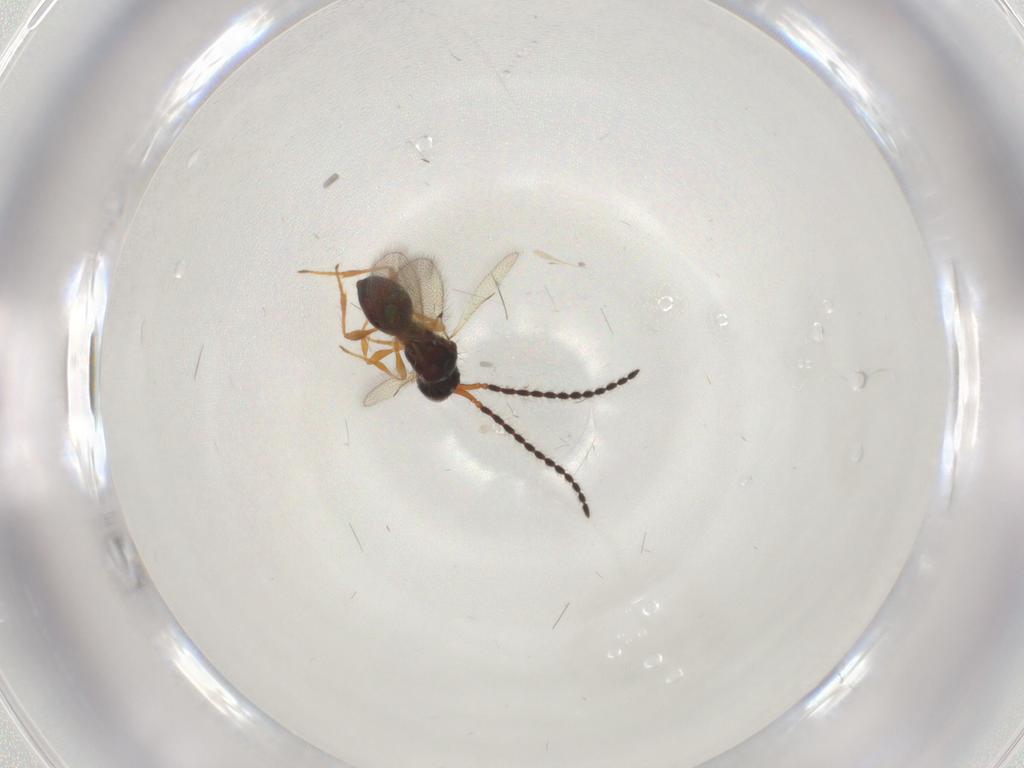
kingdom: Animalia
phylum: Arthropoda
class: Insecta
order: Hymenoptera
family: Diapriidae
